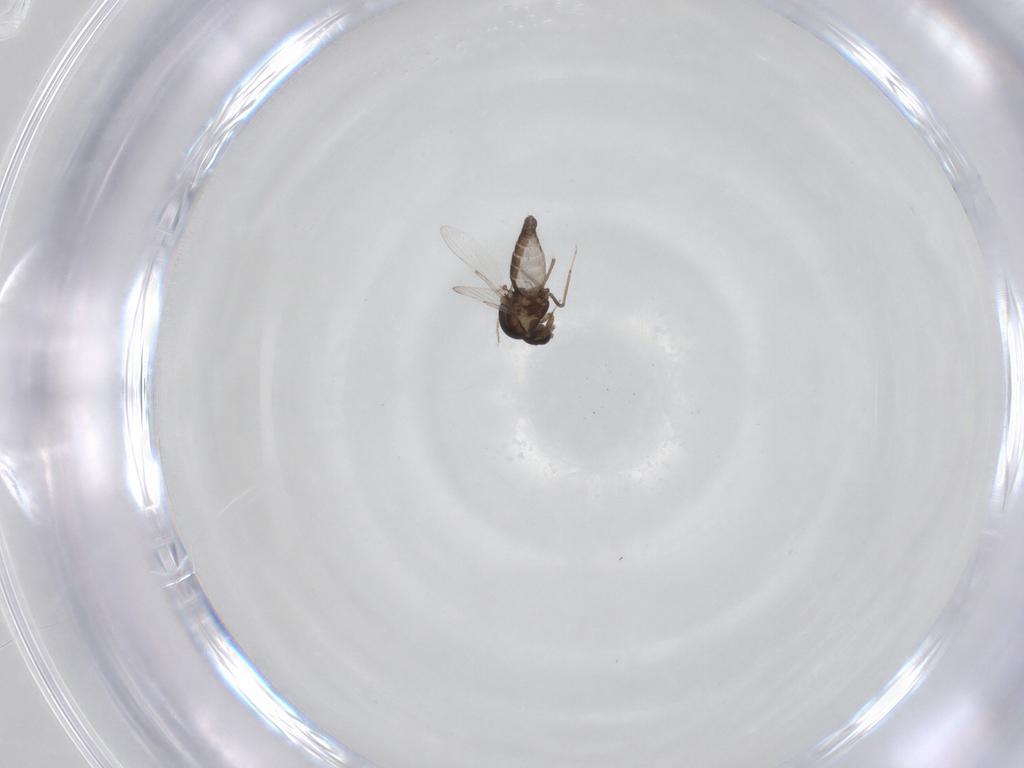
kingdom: Animalia
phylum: Arthropoda
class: Insecta
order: Diptera
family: Ceratopogonidae
